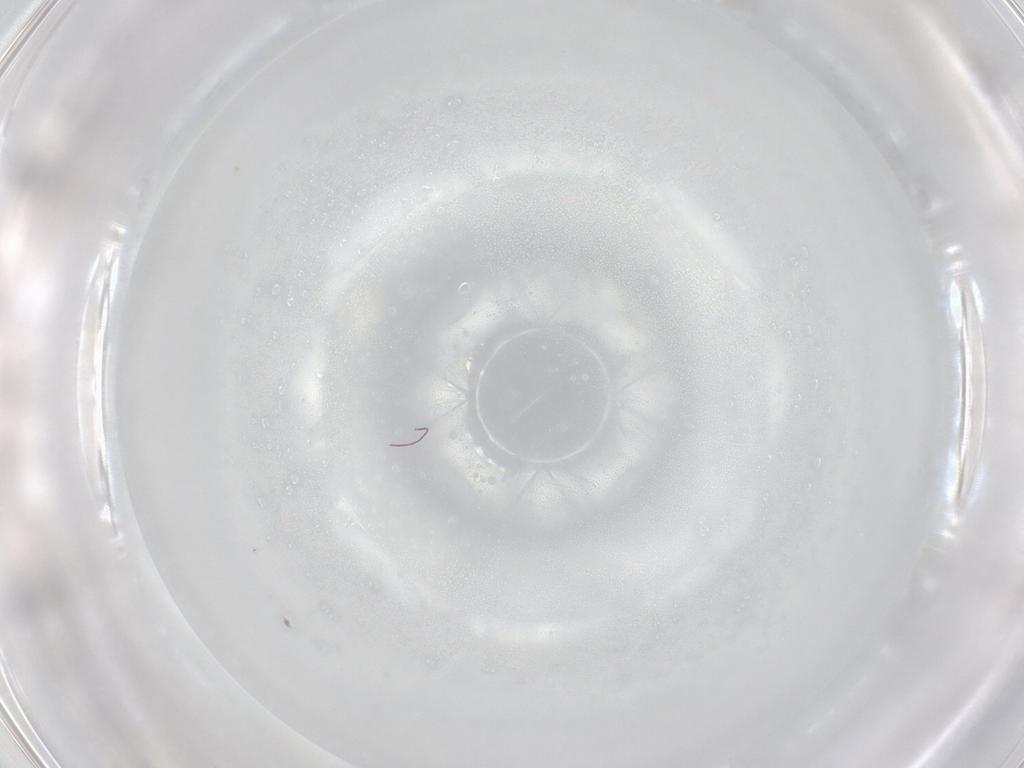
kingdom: Animalia
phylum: Arthropoda
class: Insecta
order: Diptera
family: Chironomidae
